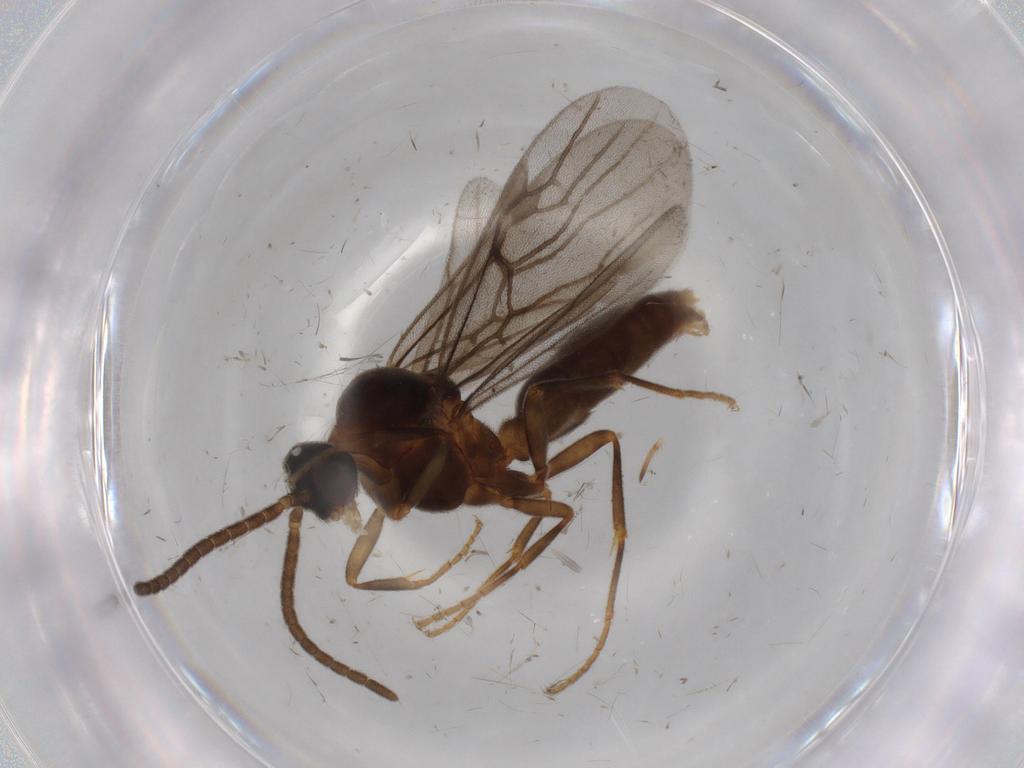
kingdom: Animalia
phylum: Arthropoda
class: Insecta
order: Hymenoptera
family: Formicidae
